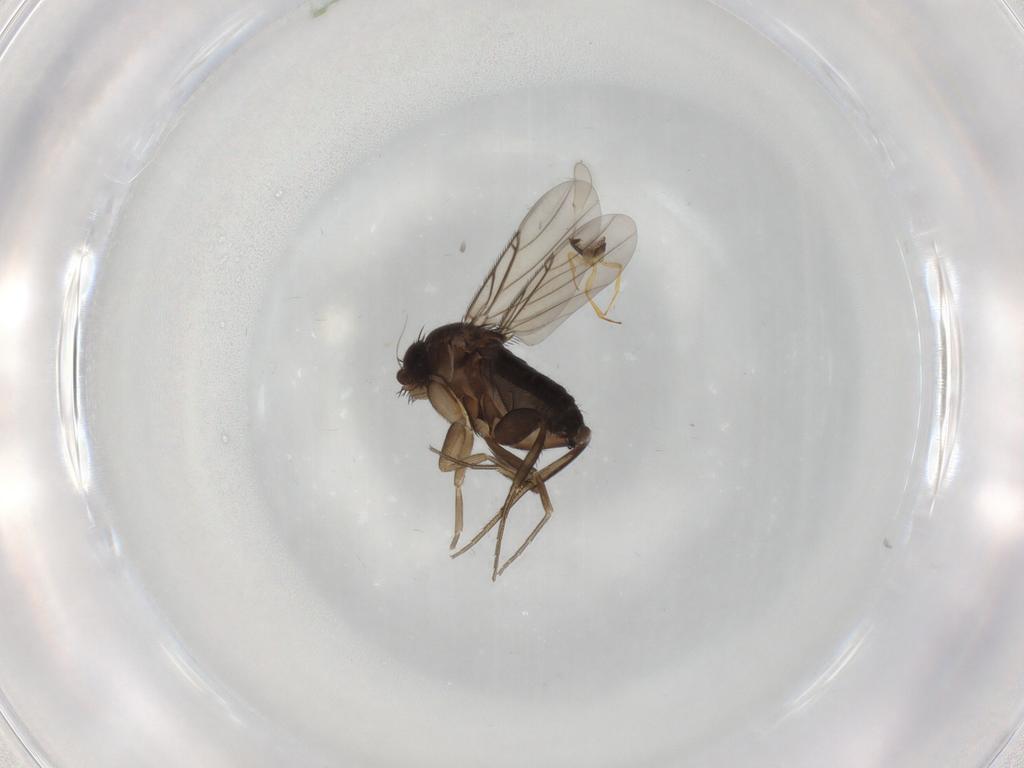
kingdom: Animalia
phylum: Arthropoda
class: Insecta
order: Diptera
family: Phoridae
